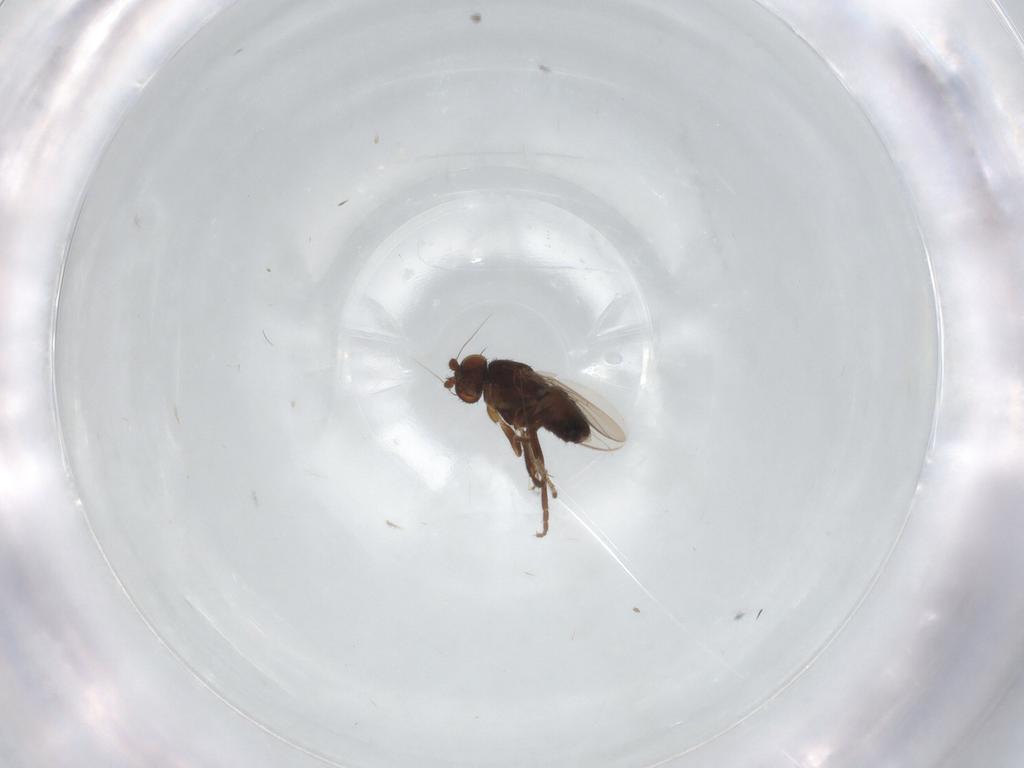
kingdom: Animalia
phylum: Arthropoda
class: Insecta
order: Diptera
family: Sphaeroceridae
